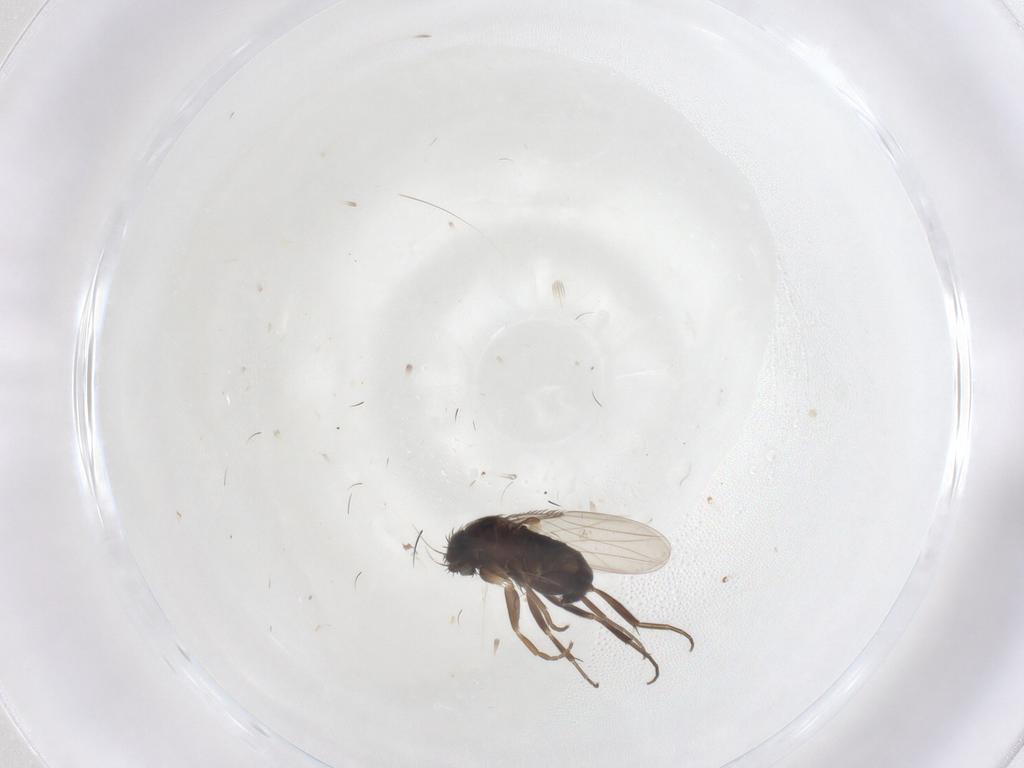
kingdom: Animalia
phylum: Arthropoda
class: Insecta
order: Diptera
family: Phoridae
